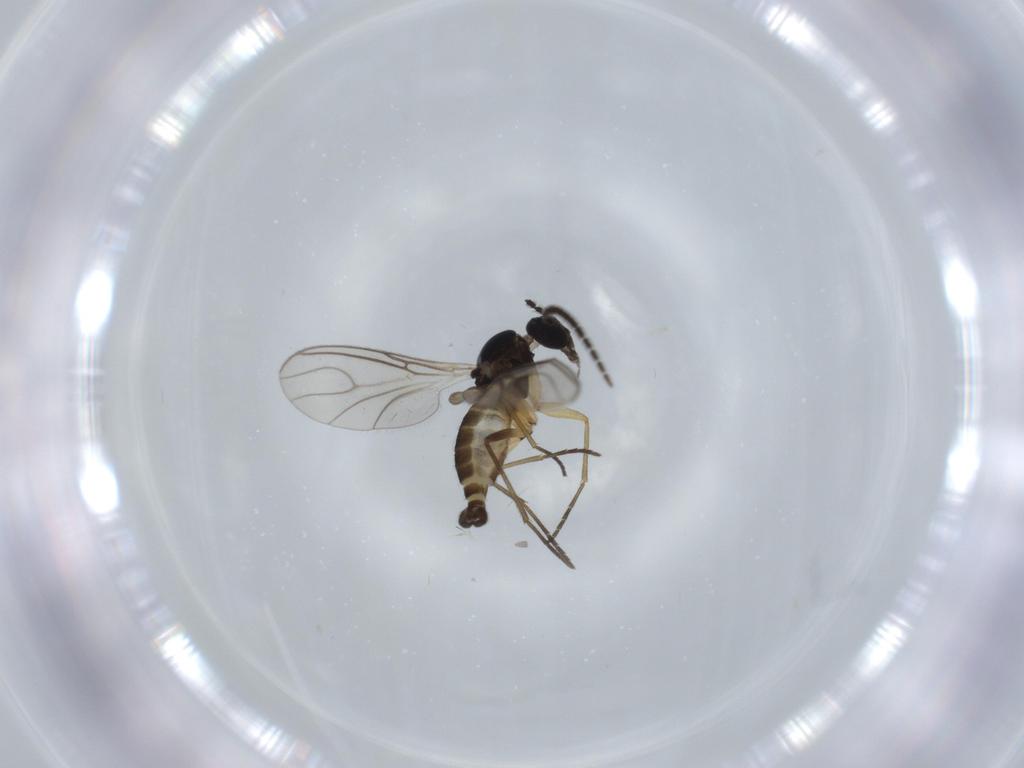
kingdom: Animalia
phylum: Arthropoda
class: Insecta
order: Diptera
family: Sciaridae
